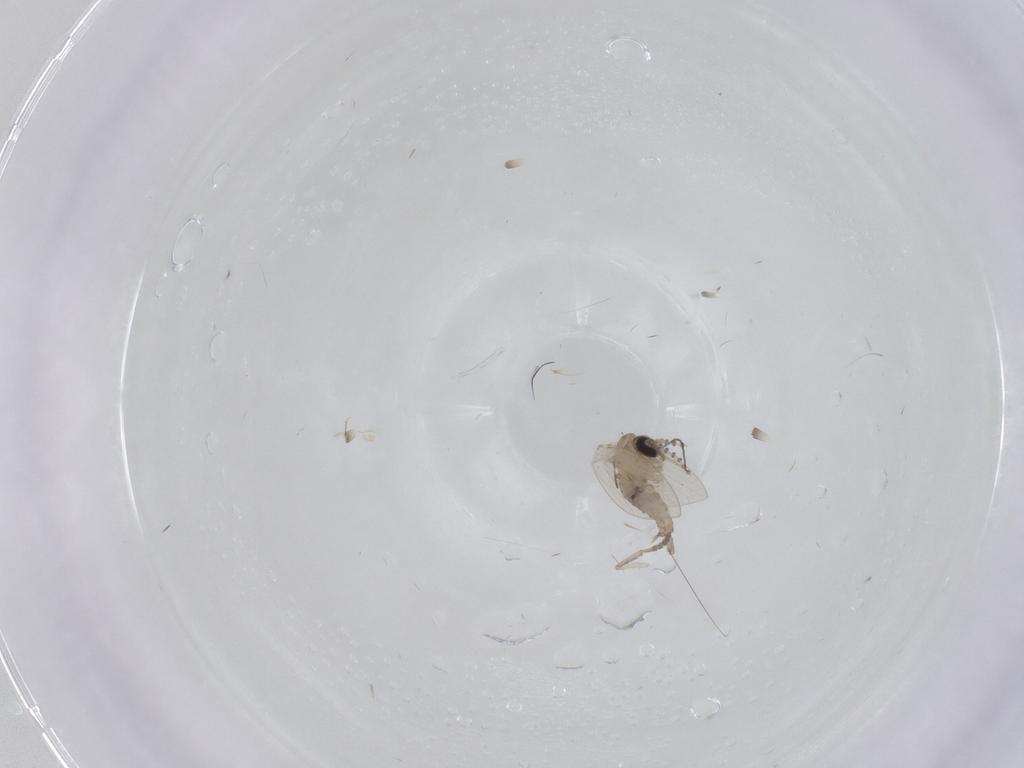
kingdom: Animalia
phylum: Arthropoda
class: Insecta
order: Diptera
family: Psychodidae
